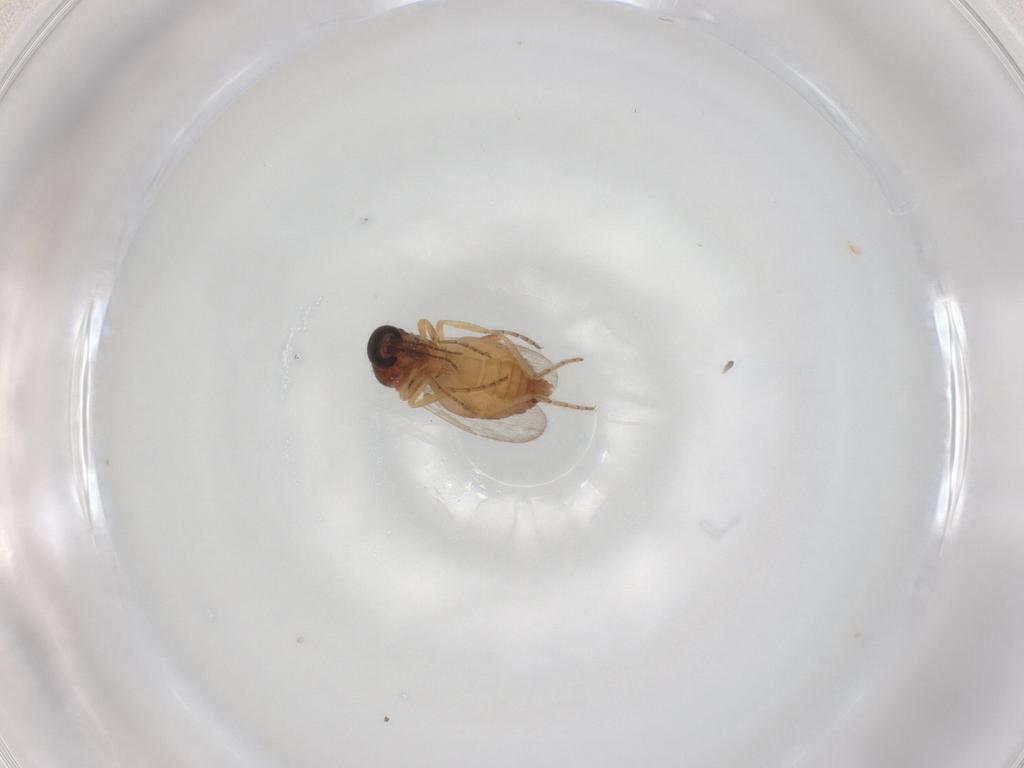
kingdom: Animalia
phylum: Arthropoda
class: Insecta
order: Diptera
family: Ceratopogonidae
